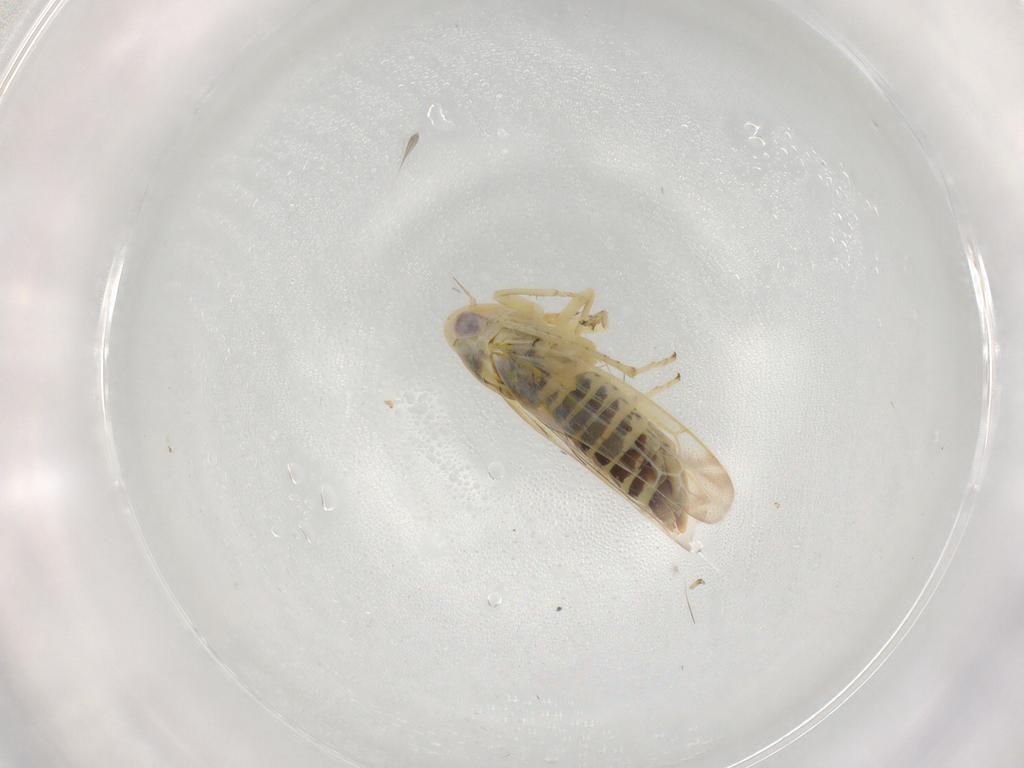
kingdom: Animalia
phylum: Arthropoda
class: Insecta
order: Hemiptera
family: Cicadellidae
